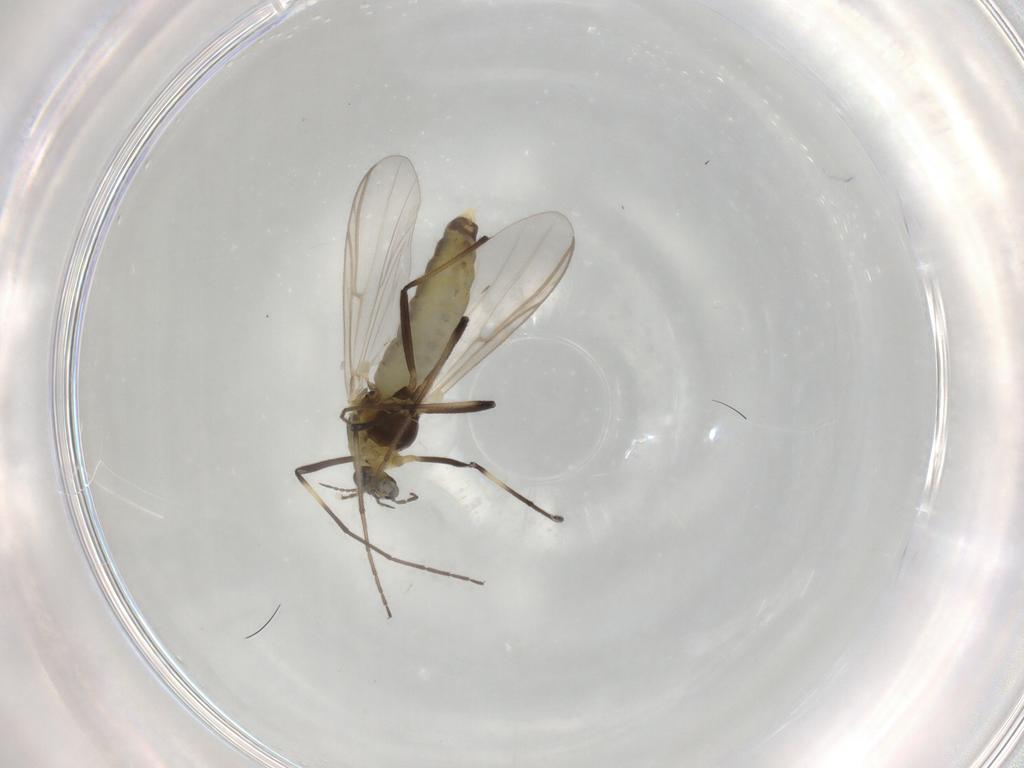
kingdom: Animalia
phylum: Arthropoda
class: Insecta
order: Diptera
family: Chironomidae
